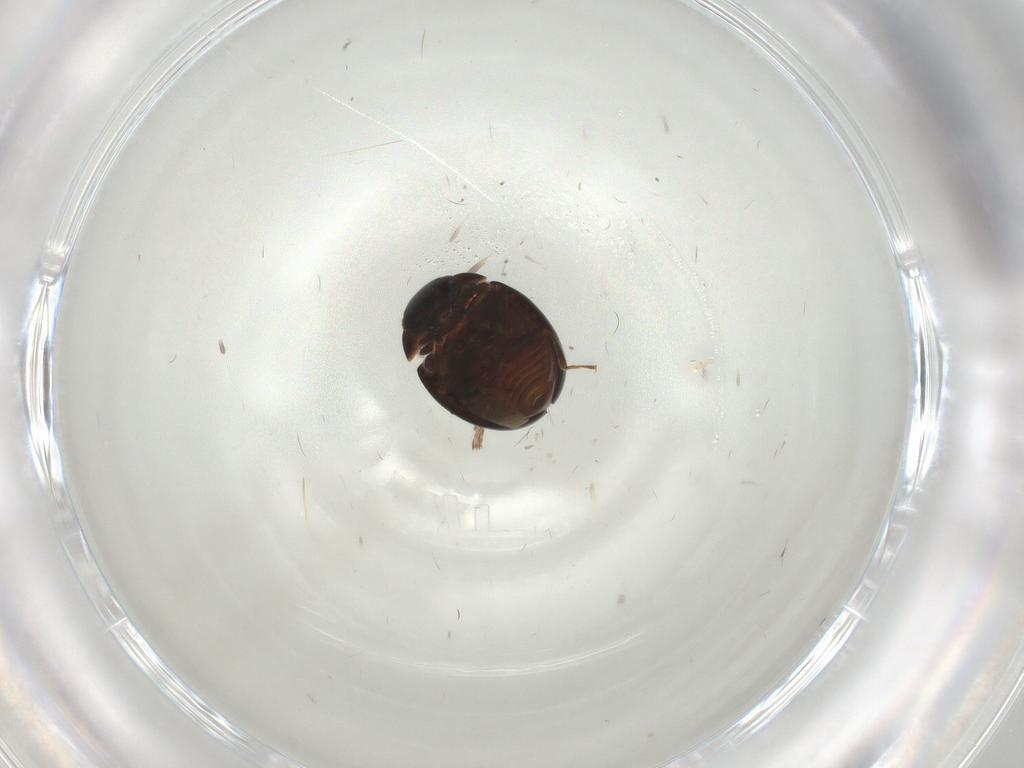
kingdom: Animalia
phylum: Arthropoda
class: Insecta
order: Coleoptera
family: Anamorphidae
